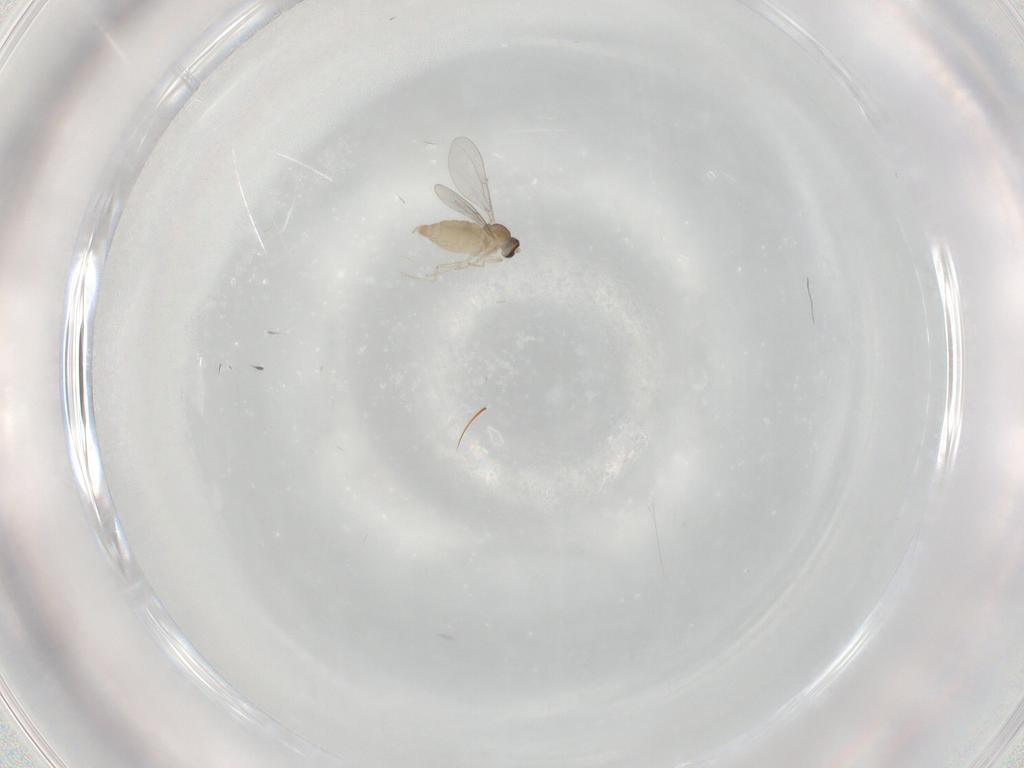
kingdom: Animalia
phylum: Arthropoda
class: Insecta
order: Diptera
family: Cecidomyiidae
